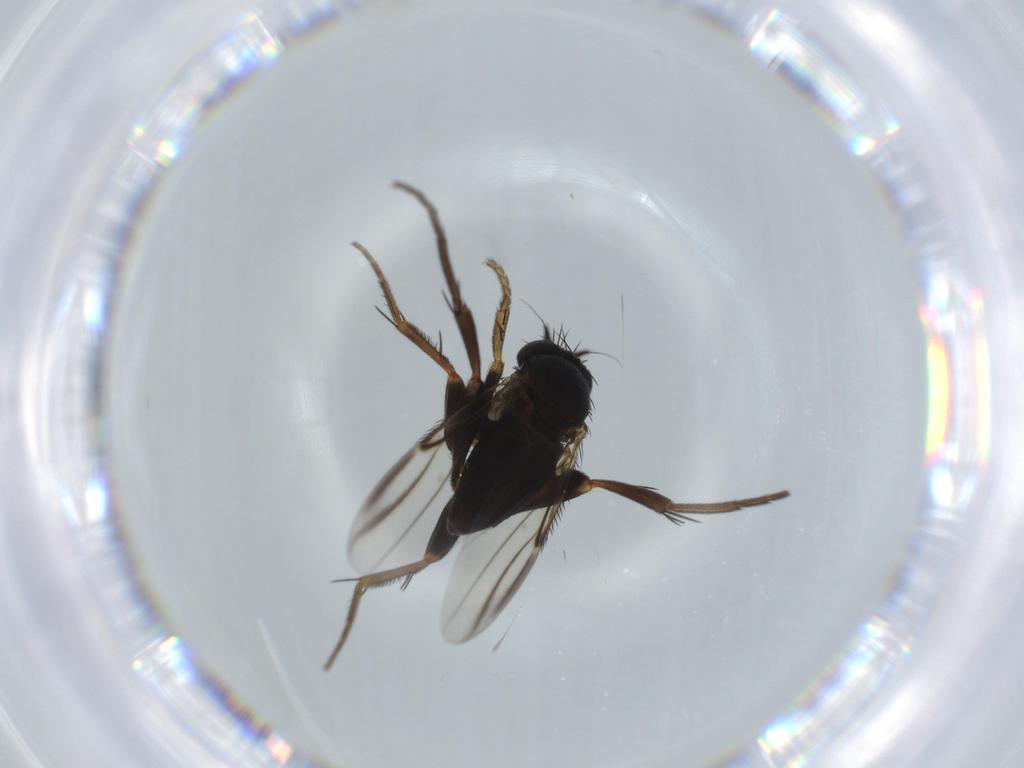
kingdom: Animalia
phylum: Arthropoda
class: Insecta
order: Diptera
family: Phoridae
